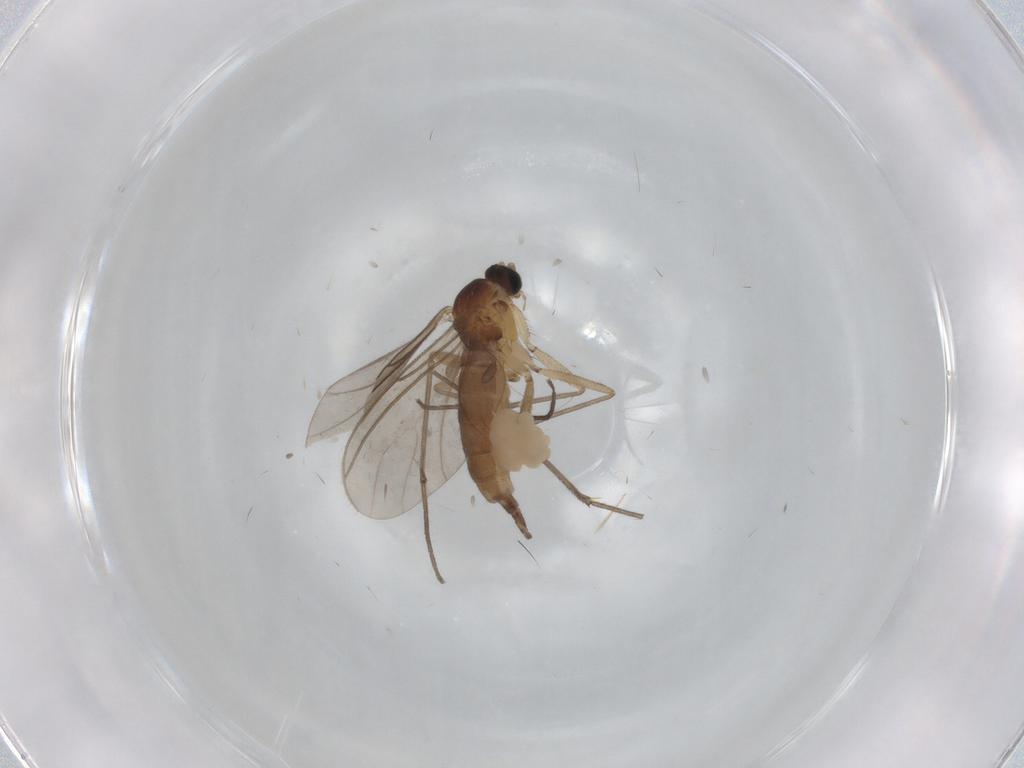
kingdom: Animalia
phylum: Arthropoda
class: Insecta
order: Diptera
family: Sciaridae
